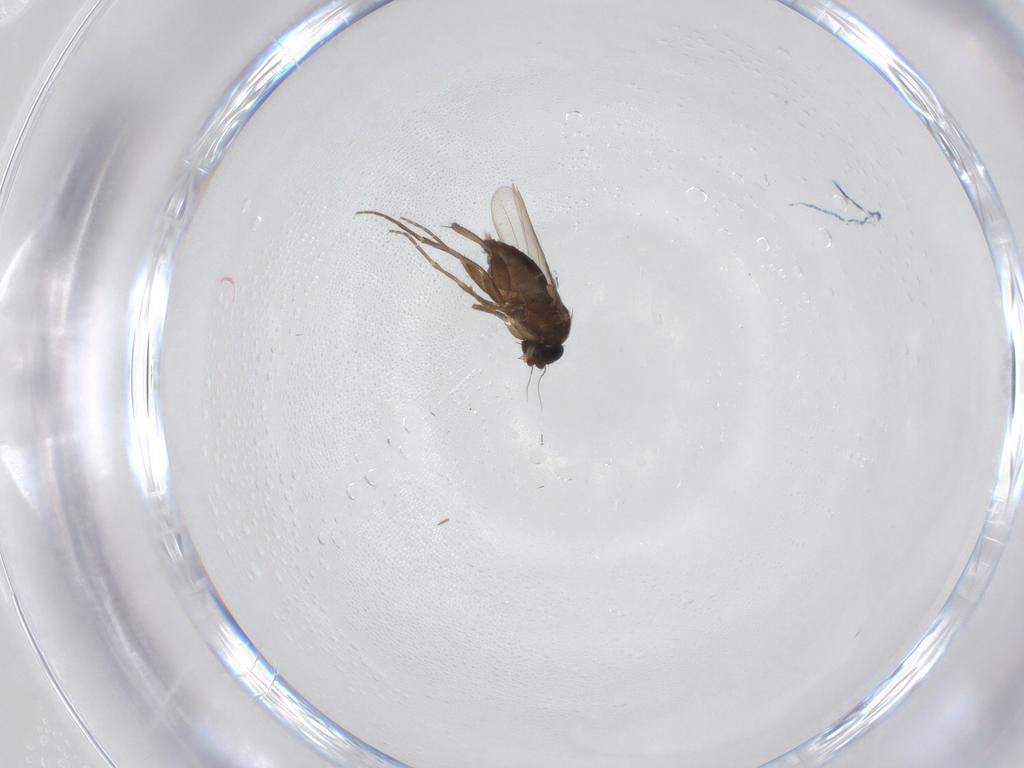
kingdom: Animalia
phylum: Arthropoda
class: Insecta
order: Diptera
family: Phoridae
